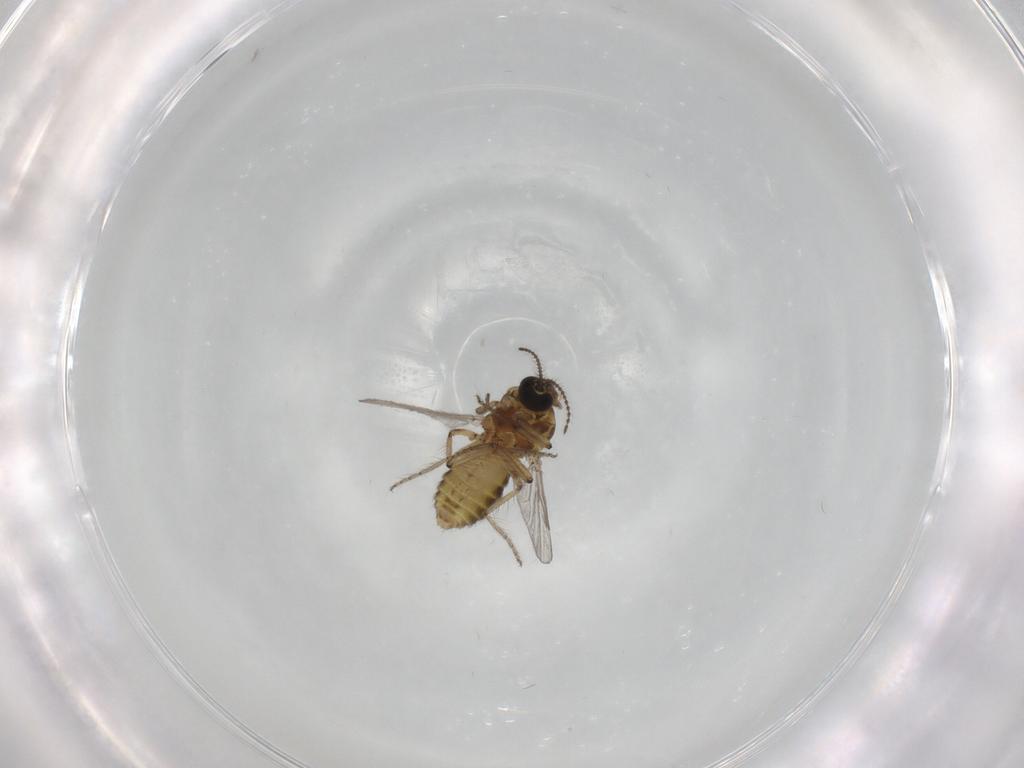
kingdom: Animalia
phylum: Arthropoda
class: Insecta
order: Diptera
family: Ceratopogonidae
